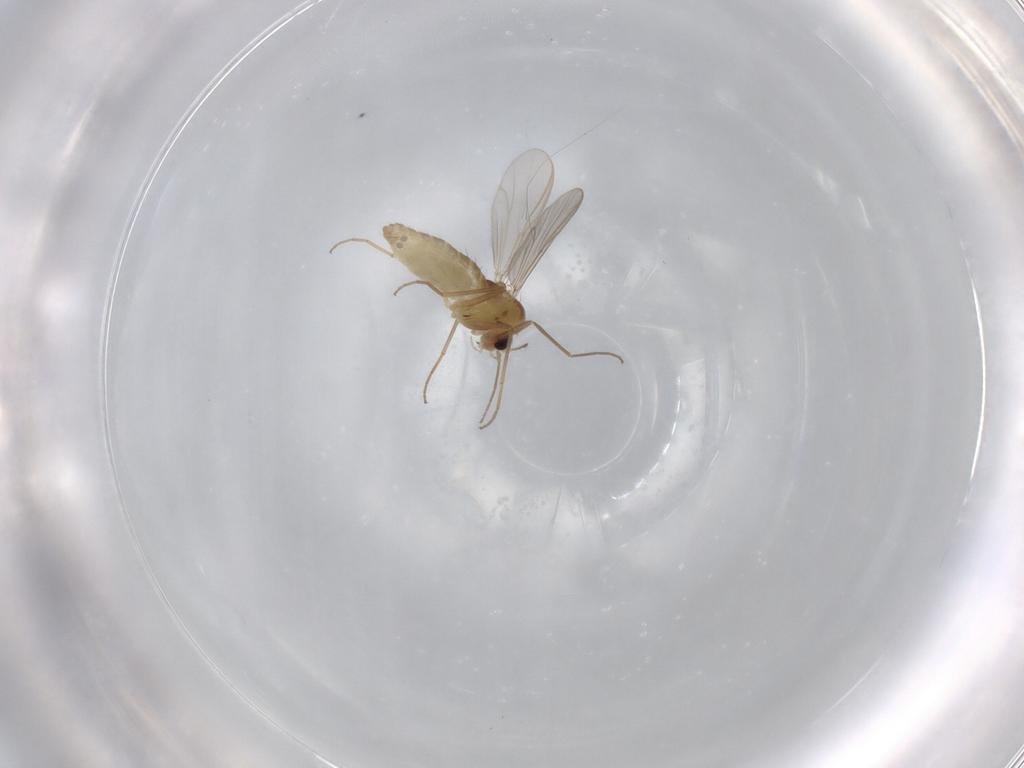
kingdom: Animalia
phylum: Arthropoda
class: Insecta
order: Diptera
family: Chironomidae
